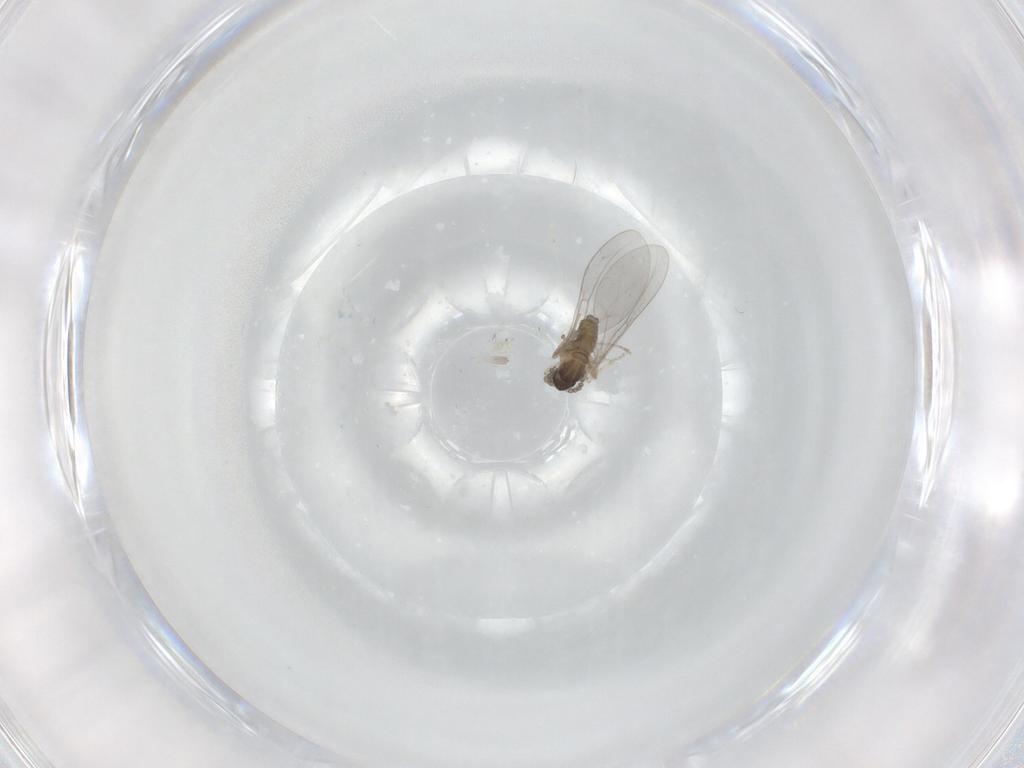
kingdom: Animalia
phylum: Arthropoda
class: Insecta
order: Diptera
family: Cecidomyiidae
